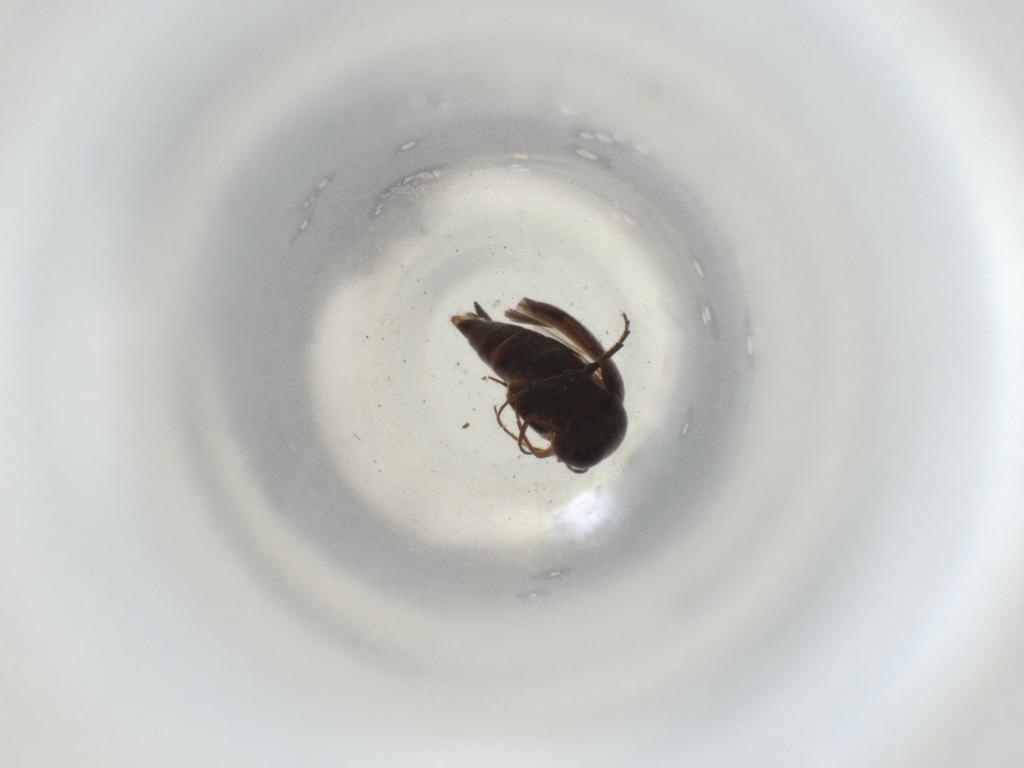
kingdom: Animalia
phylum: Arthropoda
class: Insecta
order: Coleoptera
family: Mordellidae
